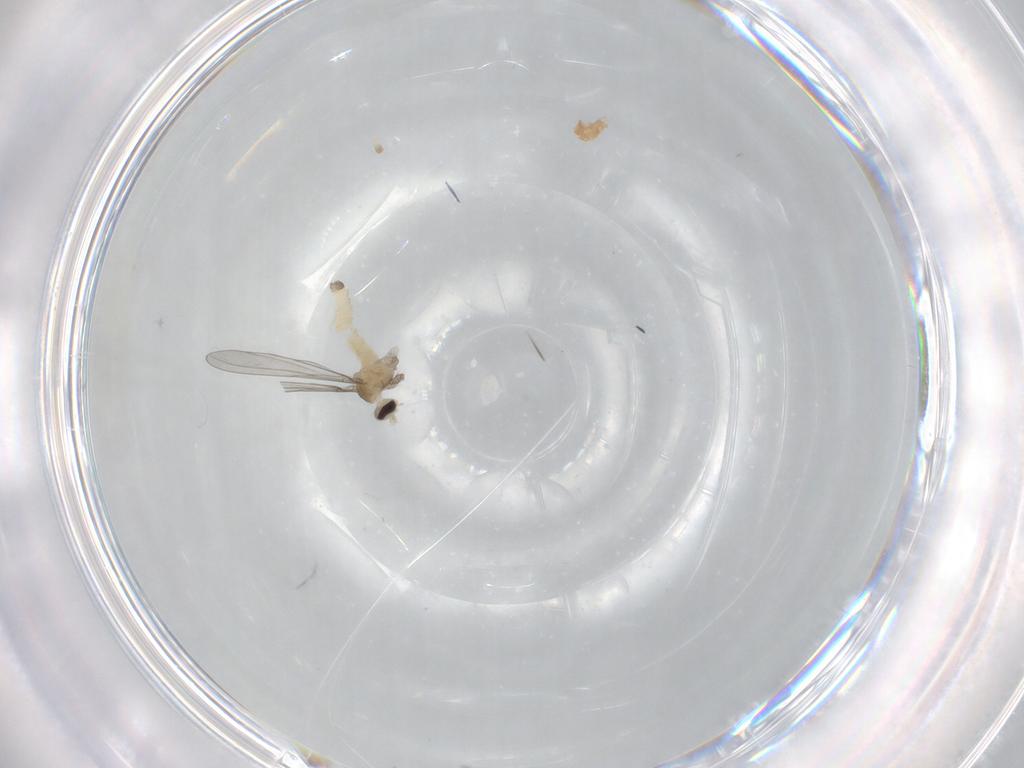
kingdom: Animalia
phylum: Arthropoda
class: Insecta
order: Diptera
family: Cecidomyiidae
